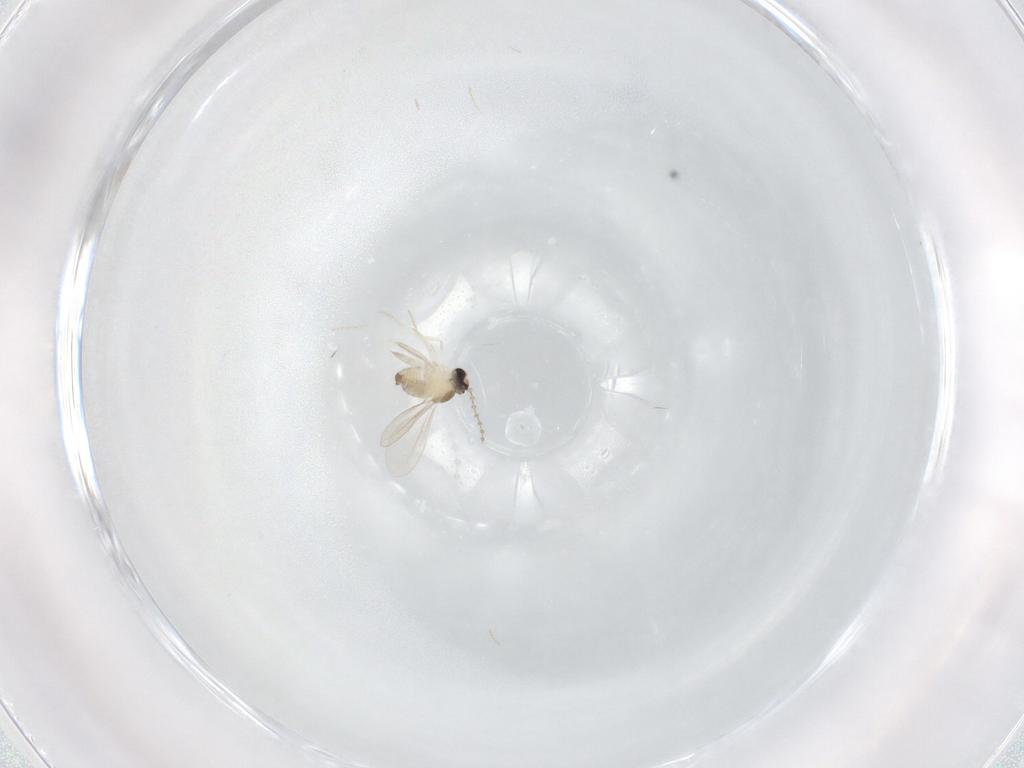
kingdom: Animalia
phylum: Arthropoda
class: Insecta
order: Diptera
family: Cecidomyiidae
